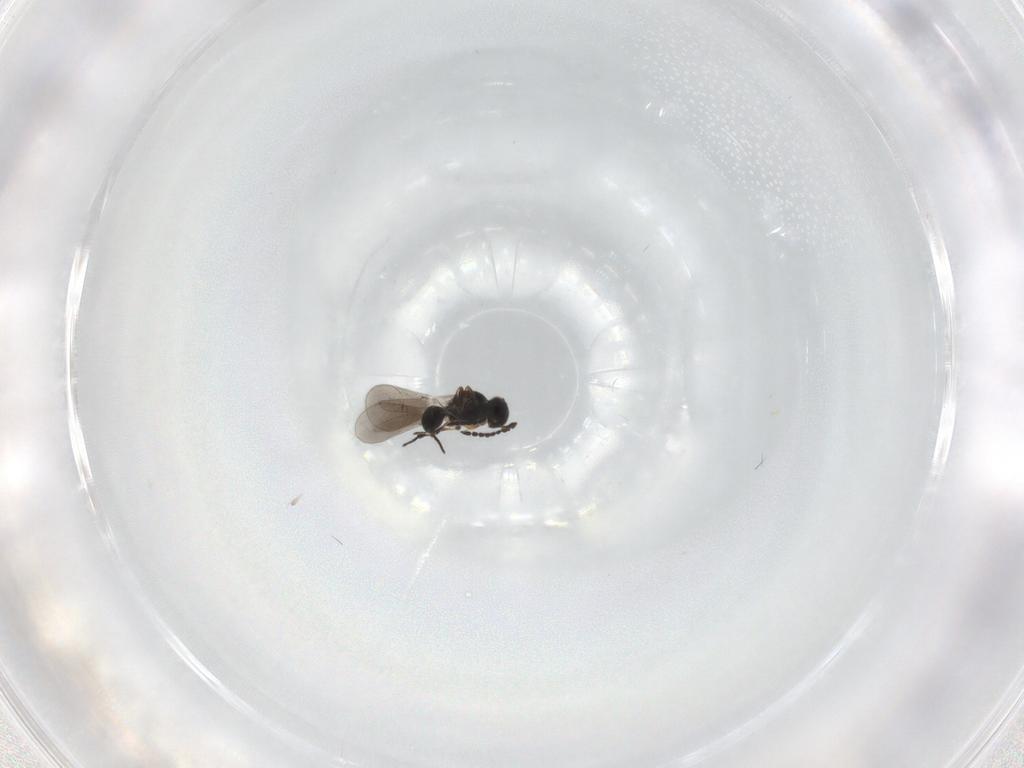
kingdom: Animalia
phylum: Arthropoda
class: Insecta
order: Hymenoptera
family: Platygastridae
